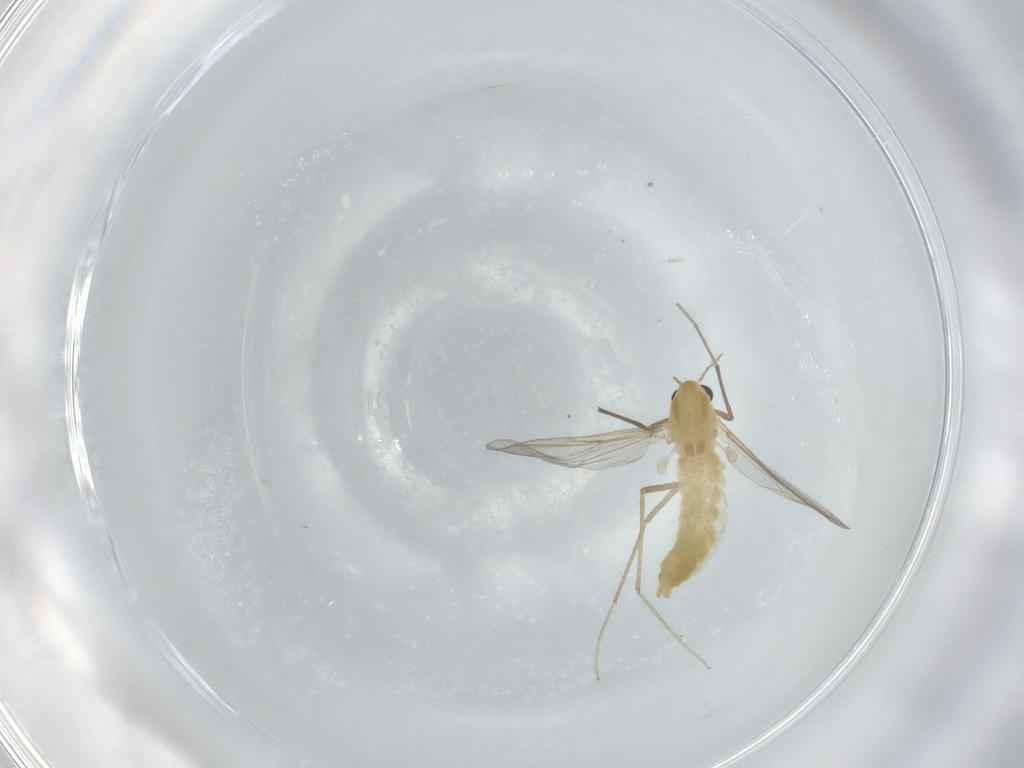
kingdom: Animalia
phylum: Arthropoda
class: Insecta
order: Diptera
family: Chironomidae
